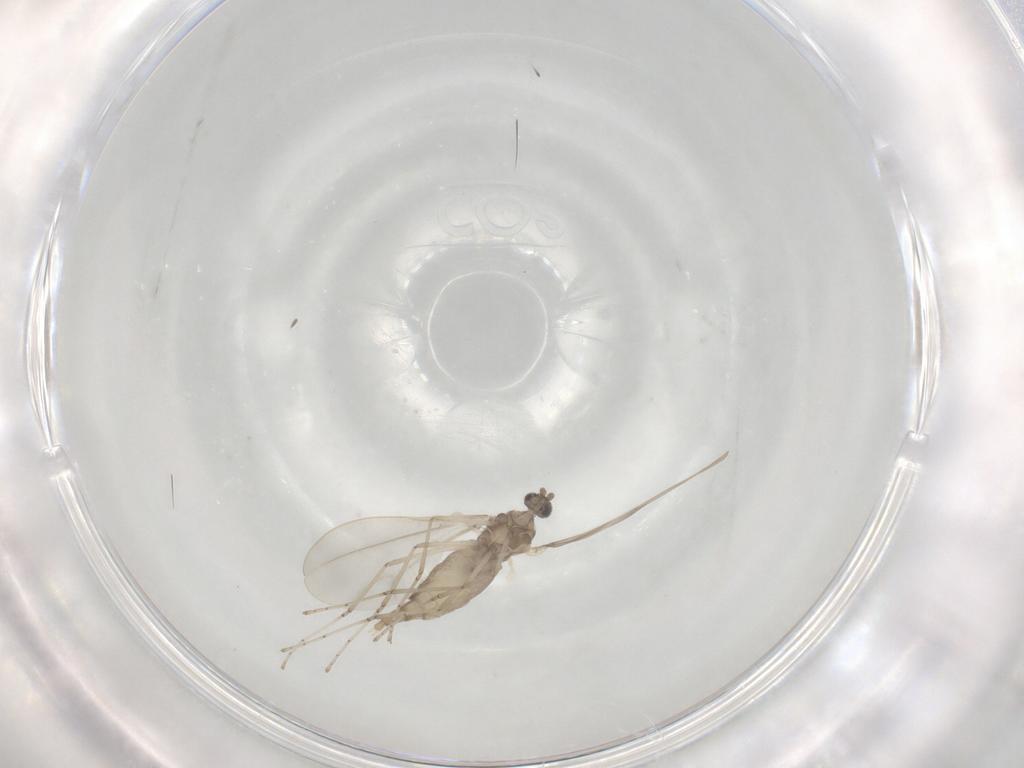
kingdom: Animalia
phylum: Arthropoda
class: Insecta
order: Diptera
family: Cecidomyiidae
